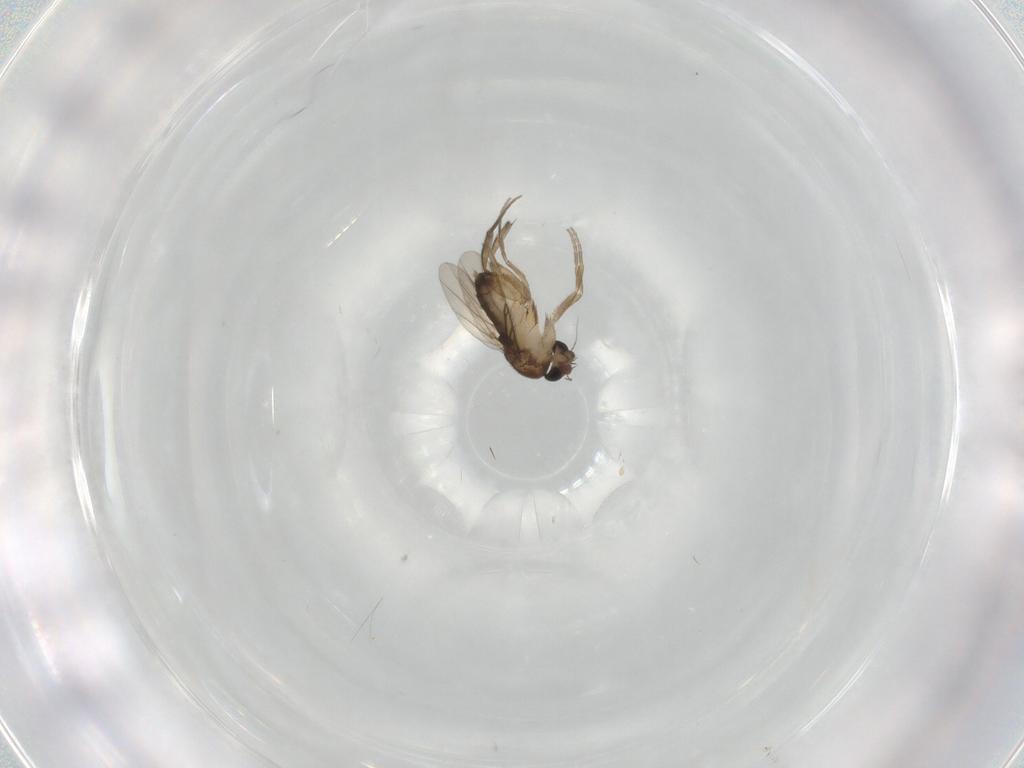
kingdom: Animalia
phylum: Arthropoda
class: Insecta
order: Diptera
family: Phoridae
